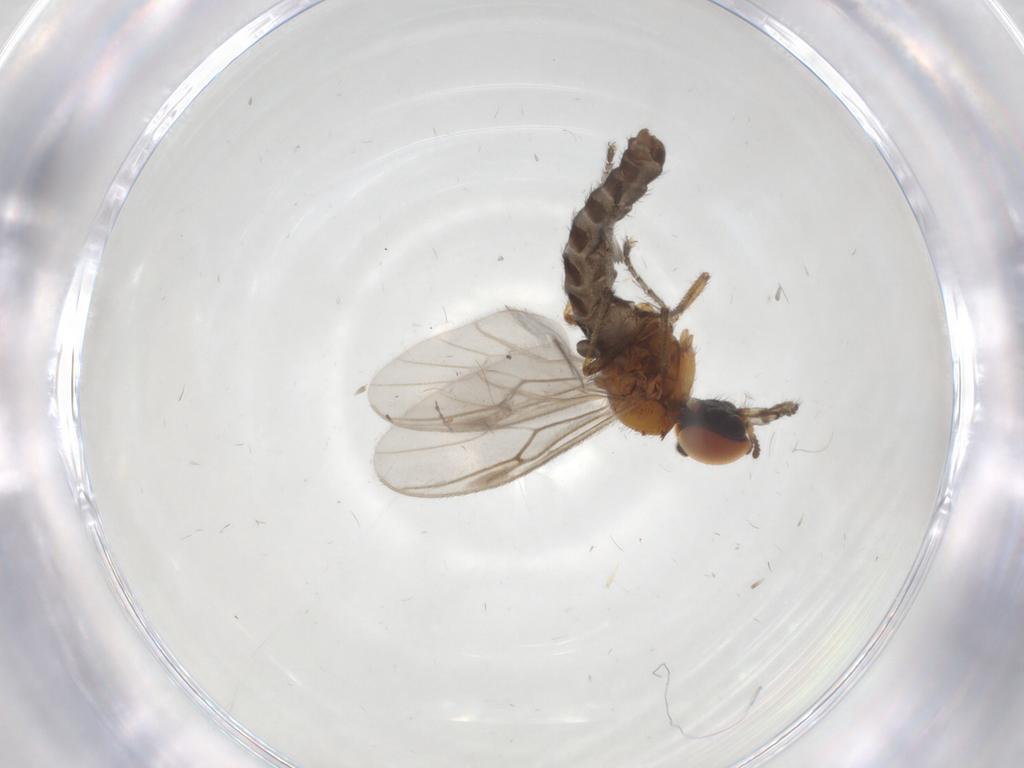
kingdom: Animalia
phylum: Arthropoda
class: Insecta
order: Diptera
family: Bibionidae
